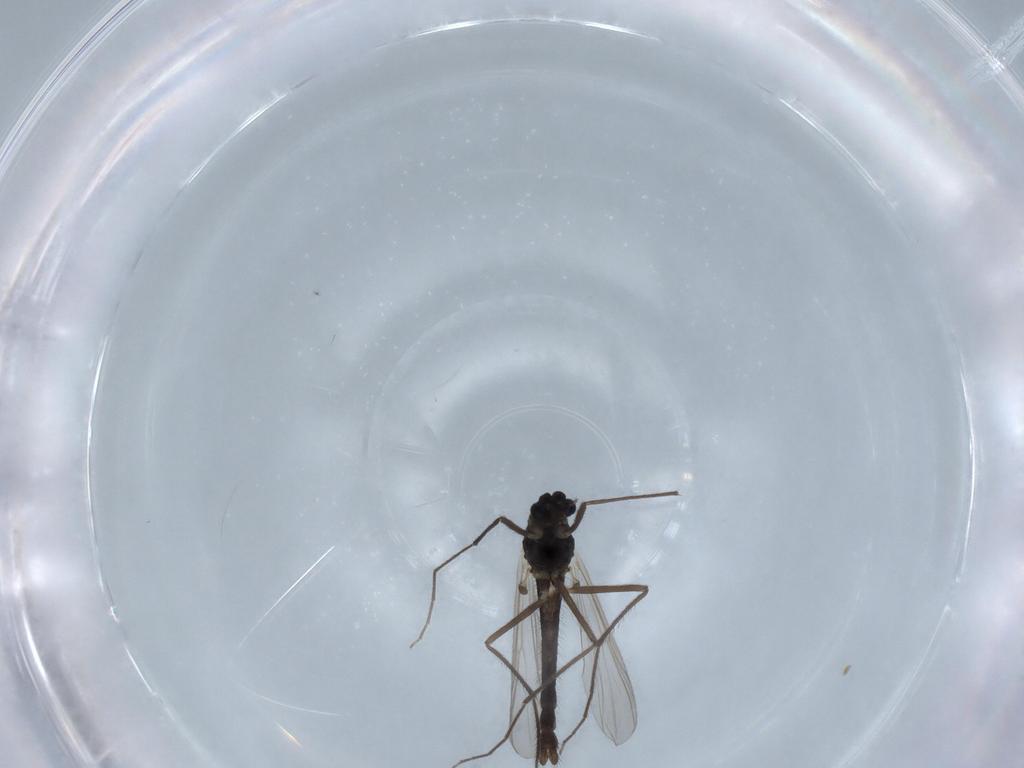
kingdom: Animalia
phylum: Arthropoda
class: Insecta
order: Diptera
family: Chironomidae
